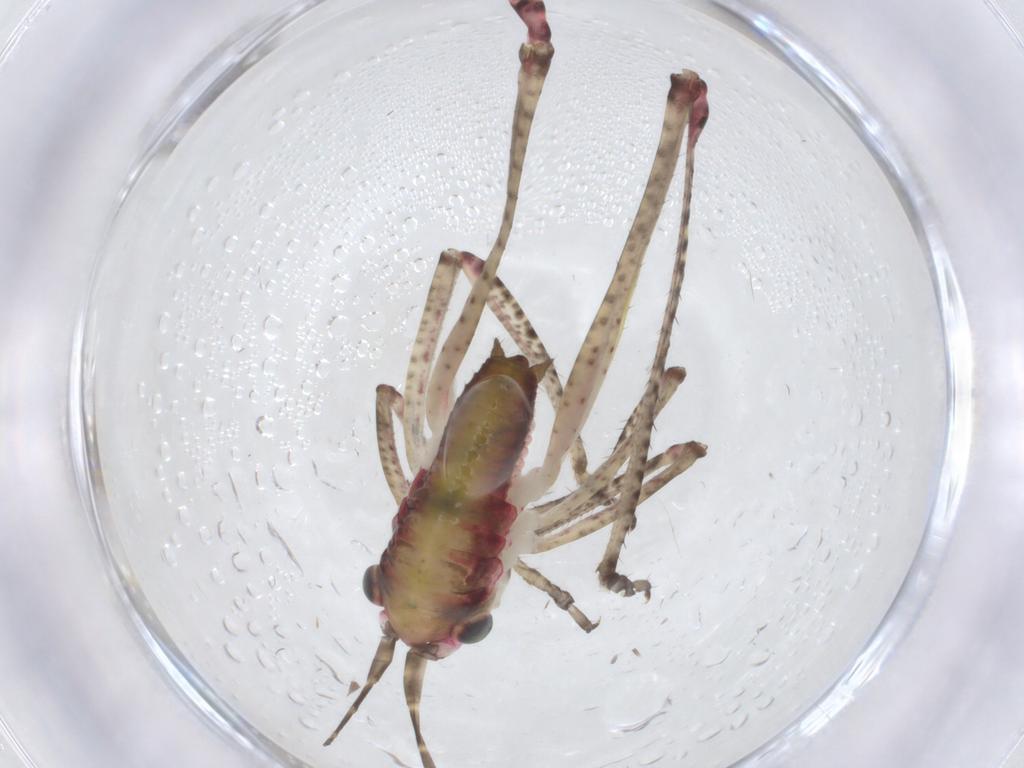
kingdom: Animalia
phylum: Arthropoda
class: Insecta
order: Orthoptera
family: Tettigoniidae
